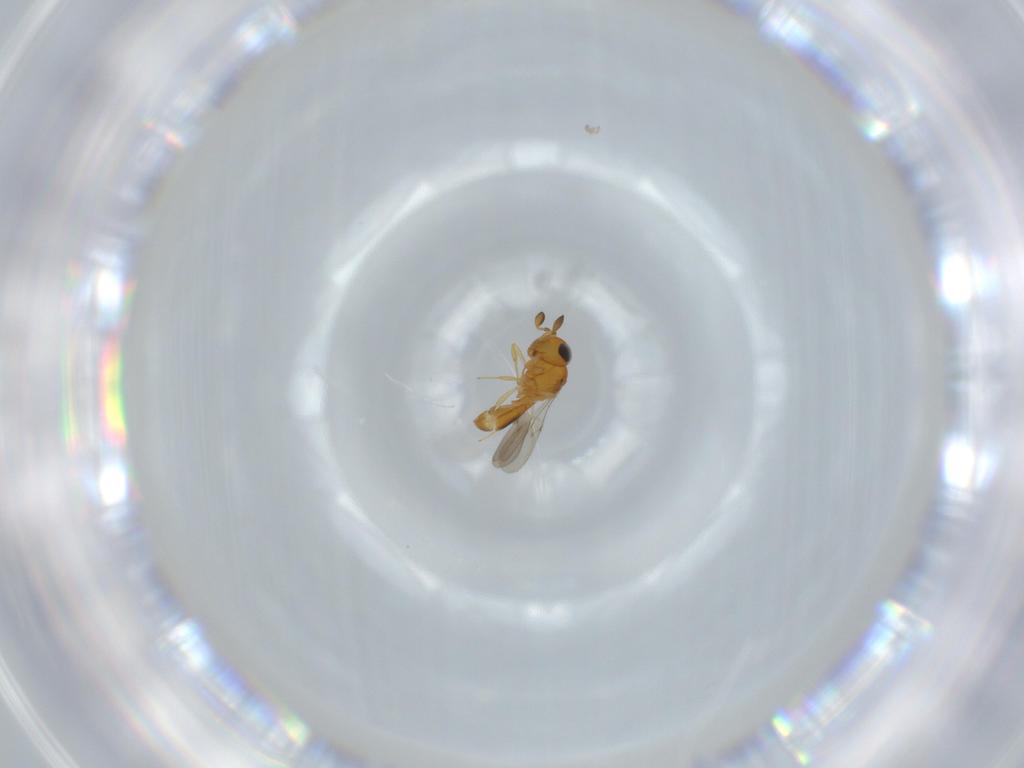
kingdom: Animalia
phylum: Arthropoda
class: Insecta
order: Hymenoptera
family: Scelionidae
